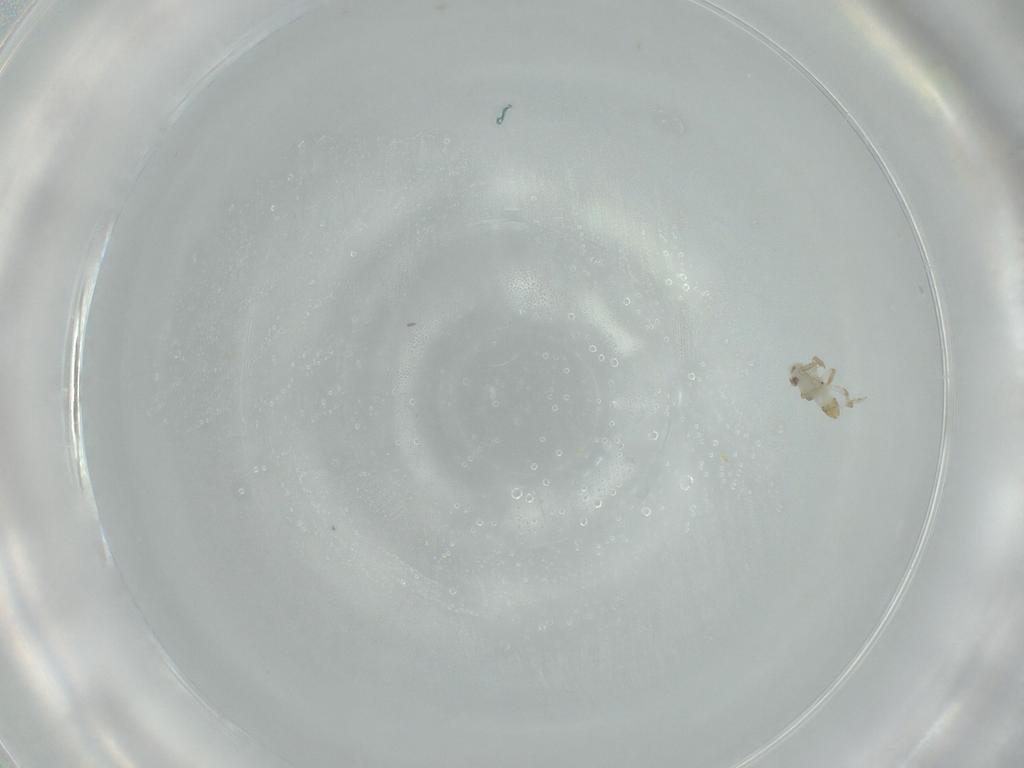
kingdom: Animalia
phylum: Arthropoda
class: Insecta
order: Hemiptera
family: Delphacidae
